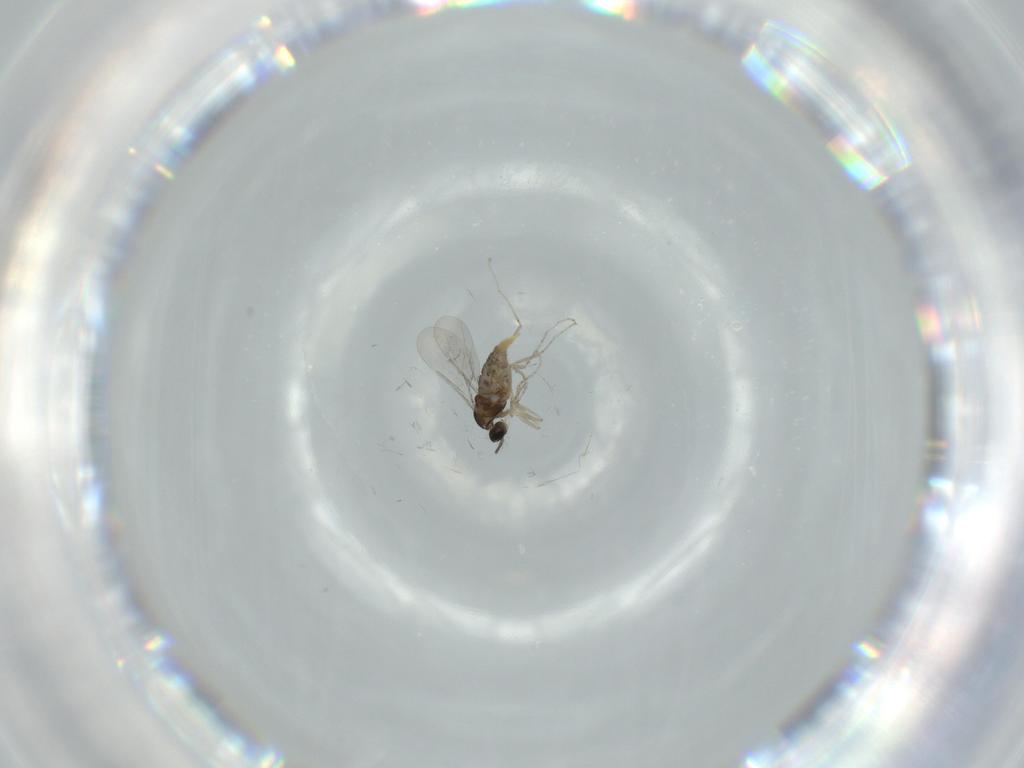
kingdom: Animalia
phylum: Arthropoda
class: Insecta
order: Diptera
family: Cecidomyiidae
